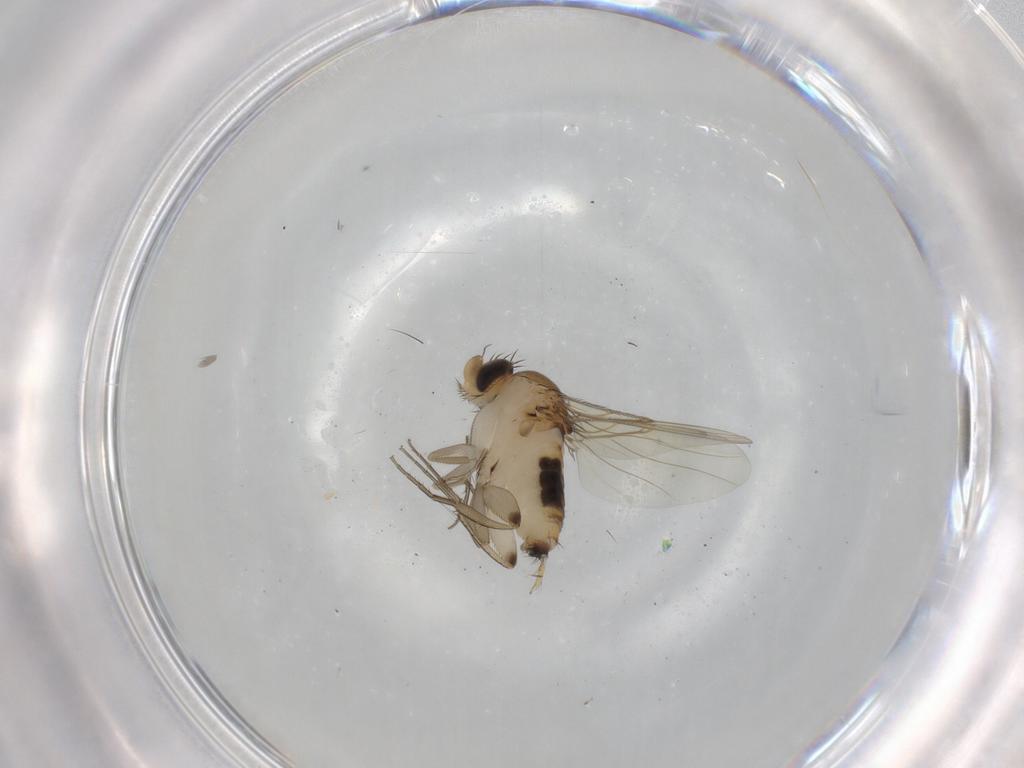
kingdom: Animalia
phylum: Arthropoda
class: Insecta
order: Diptera
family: Phoridae
